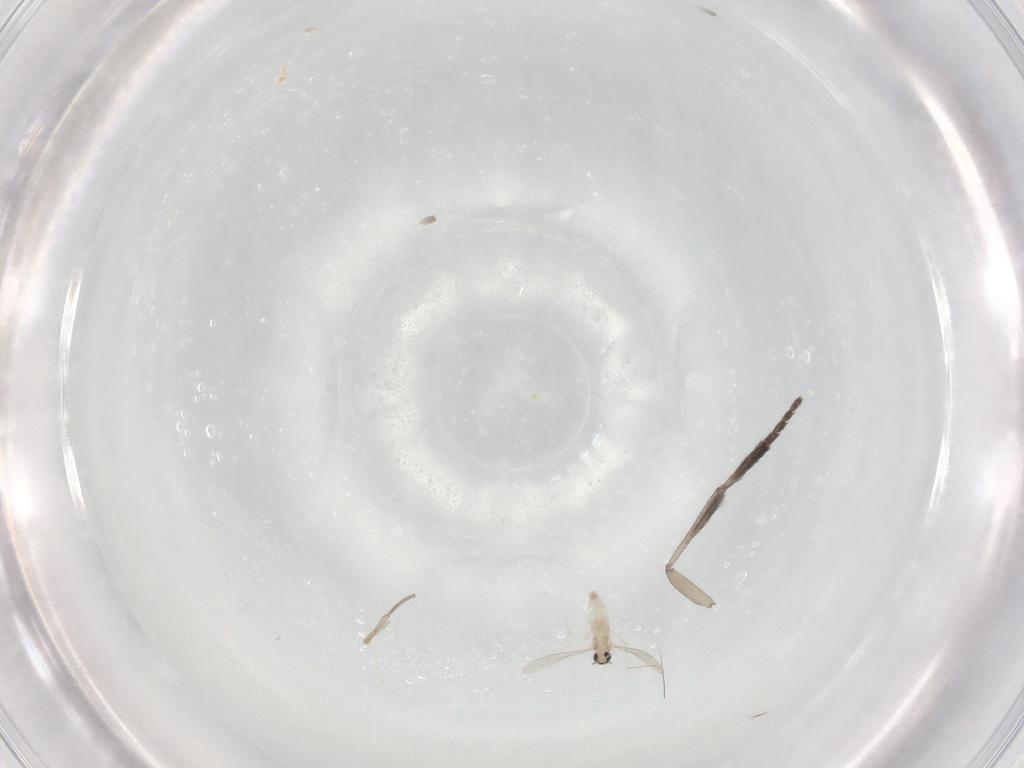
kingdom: Animalia
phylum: Arthropoda
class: Insecta
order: Diptera
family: Psychodidae
